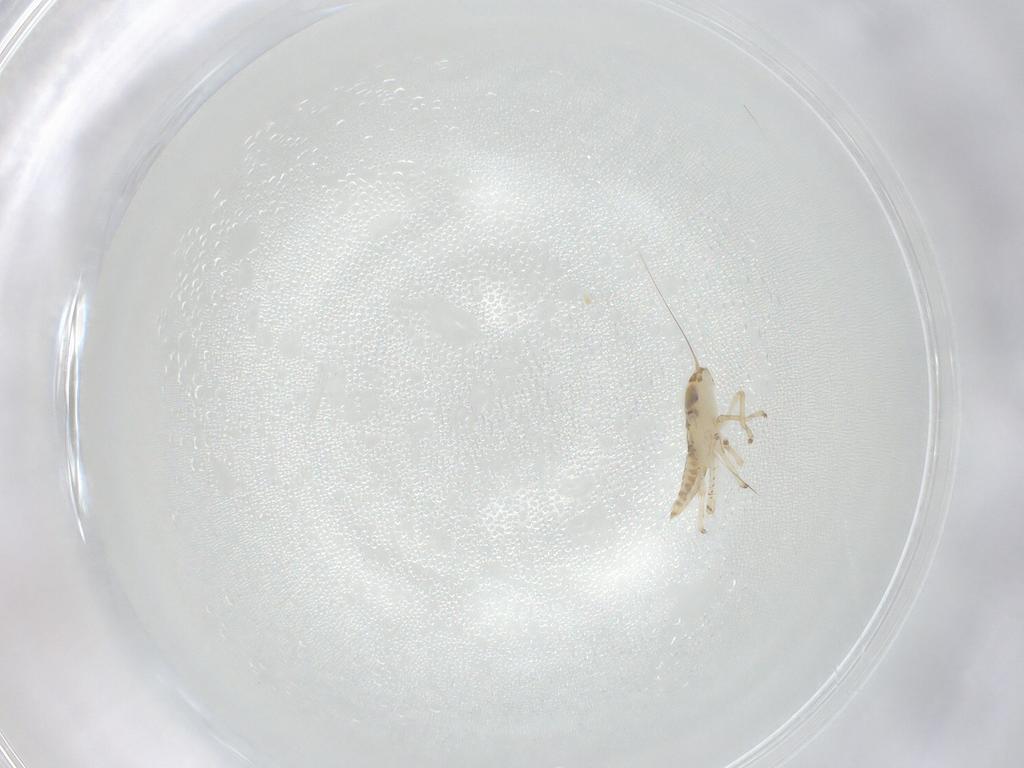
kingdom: Animalia
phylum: Arthropoda
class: Insecta
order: Hemiptera
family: Cicadellidae
